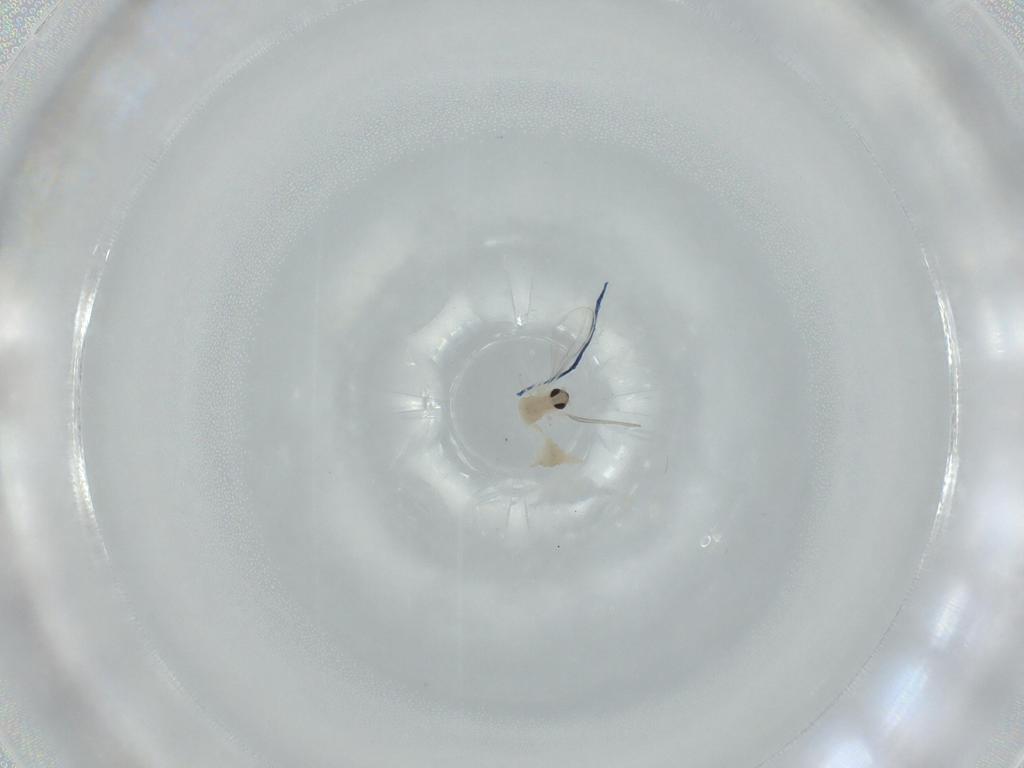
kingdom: Animalia
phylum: Arthropoda
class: Insecta
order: Diptera
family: Cecidomyiidae
